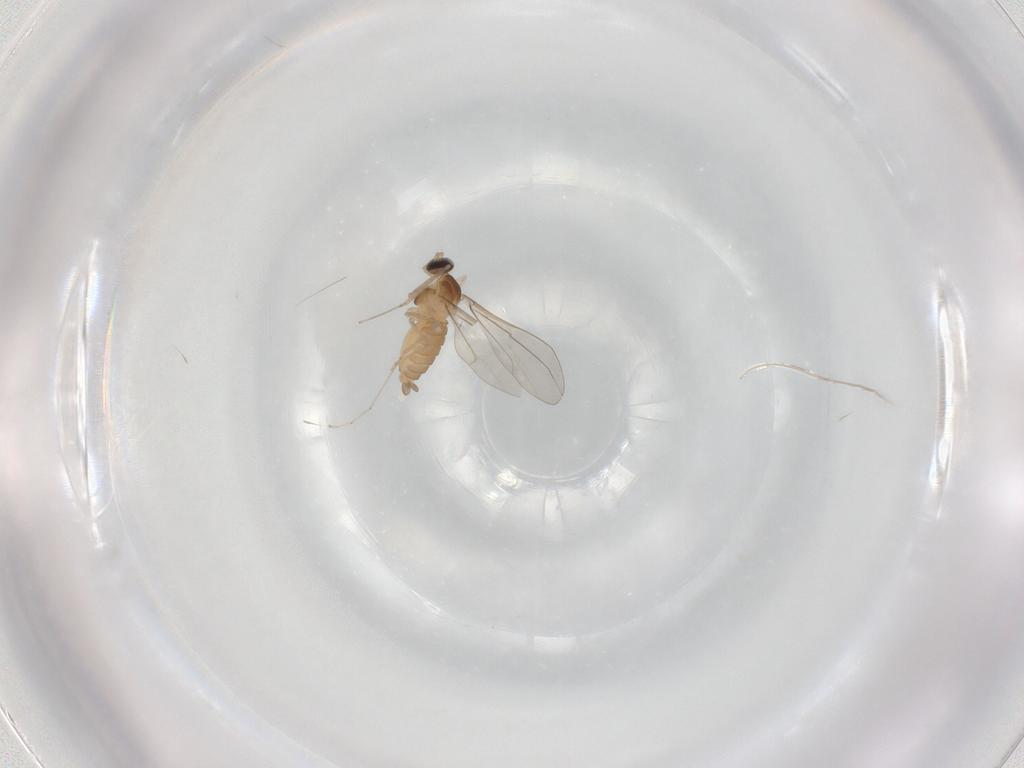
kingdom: Animalia
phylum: Arthropoda
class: Insecta
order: Diptera
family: Cecidomyiidae
